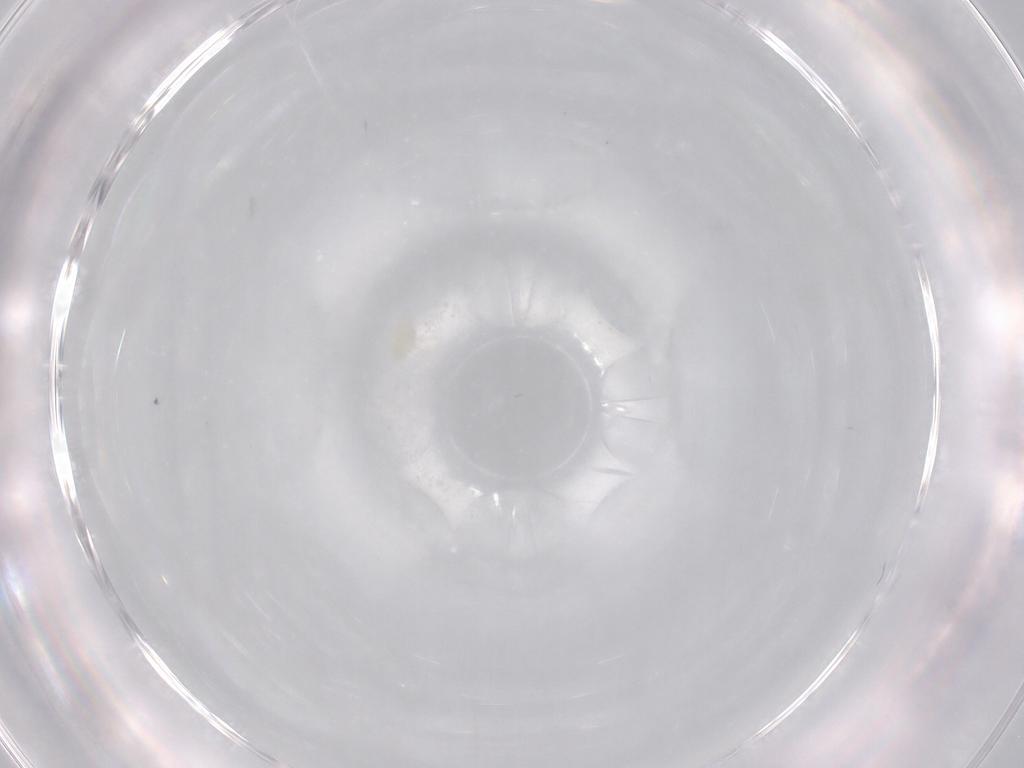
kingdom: Animalia
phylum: Arthropoda
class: Arachnida
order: Trombidiformes
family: Eupodidae
